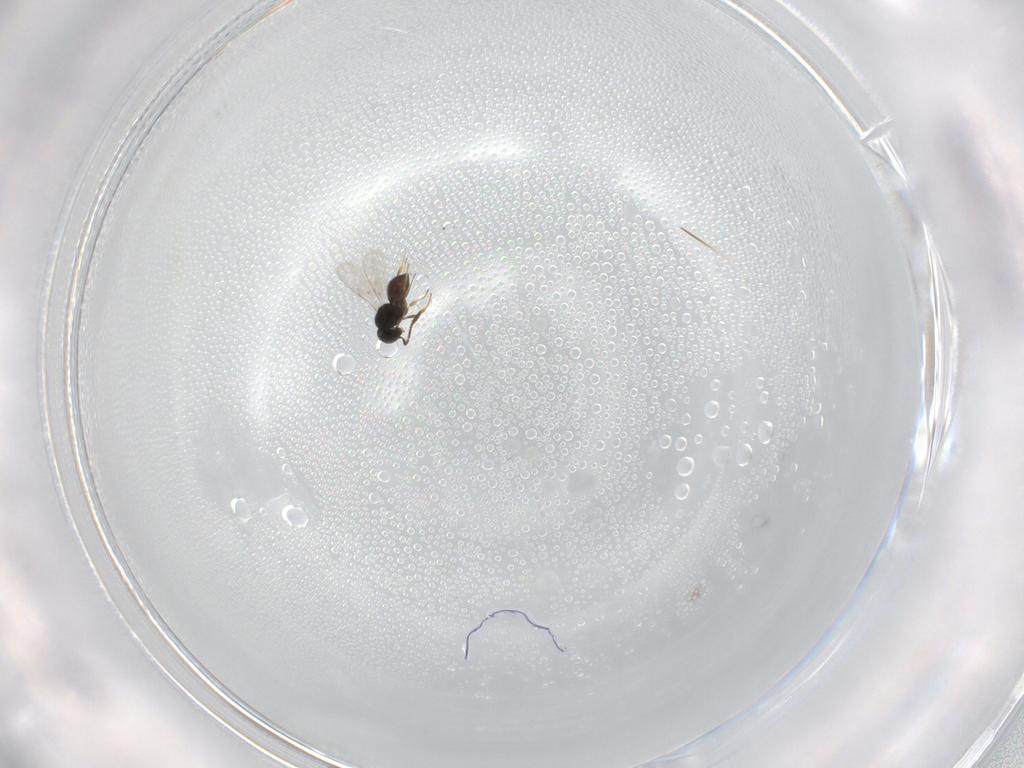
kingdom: Animalia
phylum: Arthropoda
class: Insecta
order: Hymenoptera
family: Scelionidae
